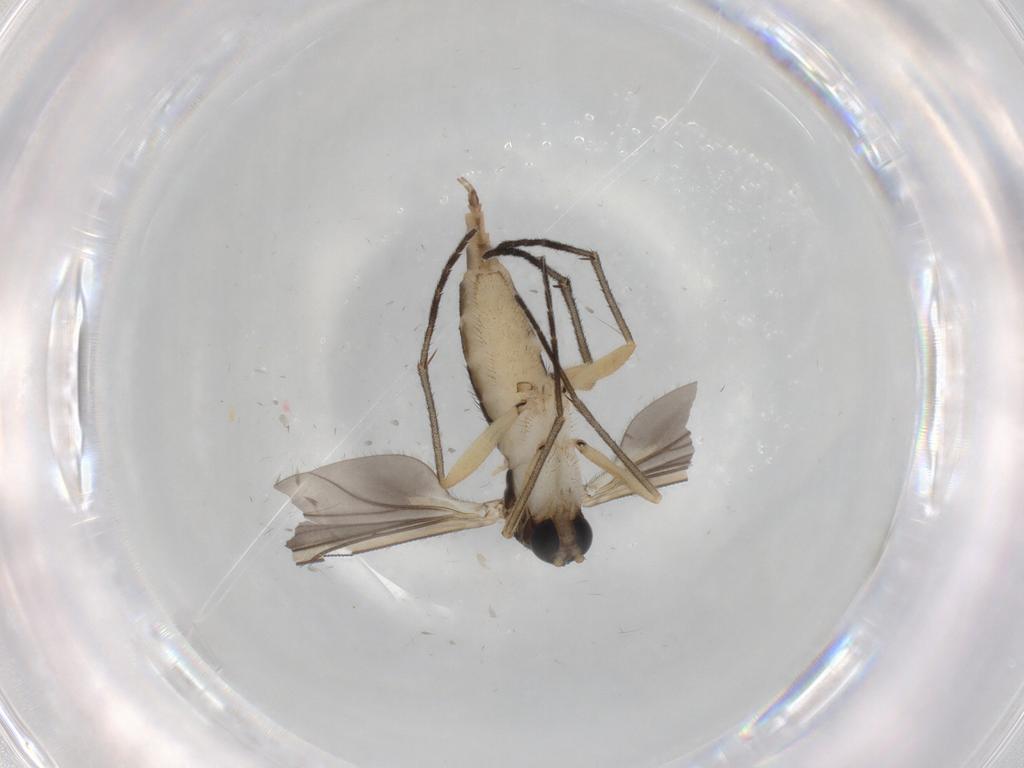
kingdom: Animalia
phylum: Arthropoda
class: Insecta
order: Diptera
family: Sciaridae
